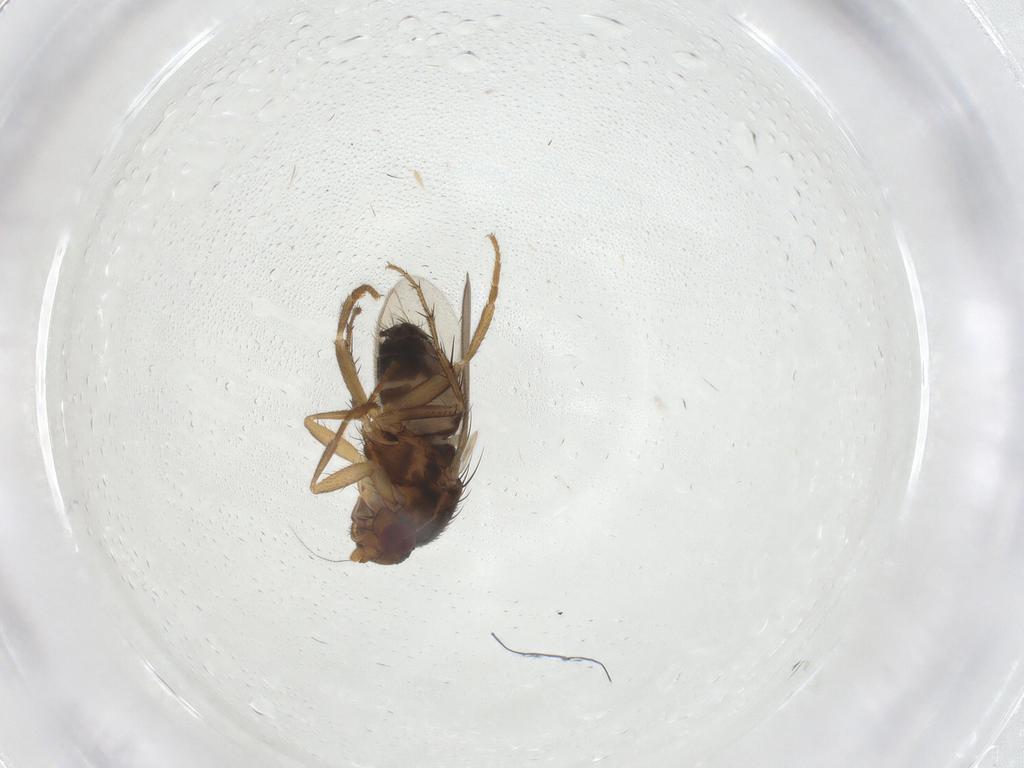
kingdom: Animalia
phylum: Arthropoda
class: Insecta
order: Diptera
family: Sphaeroceridae
